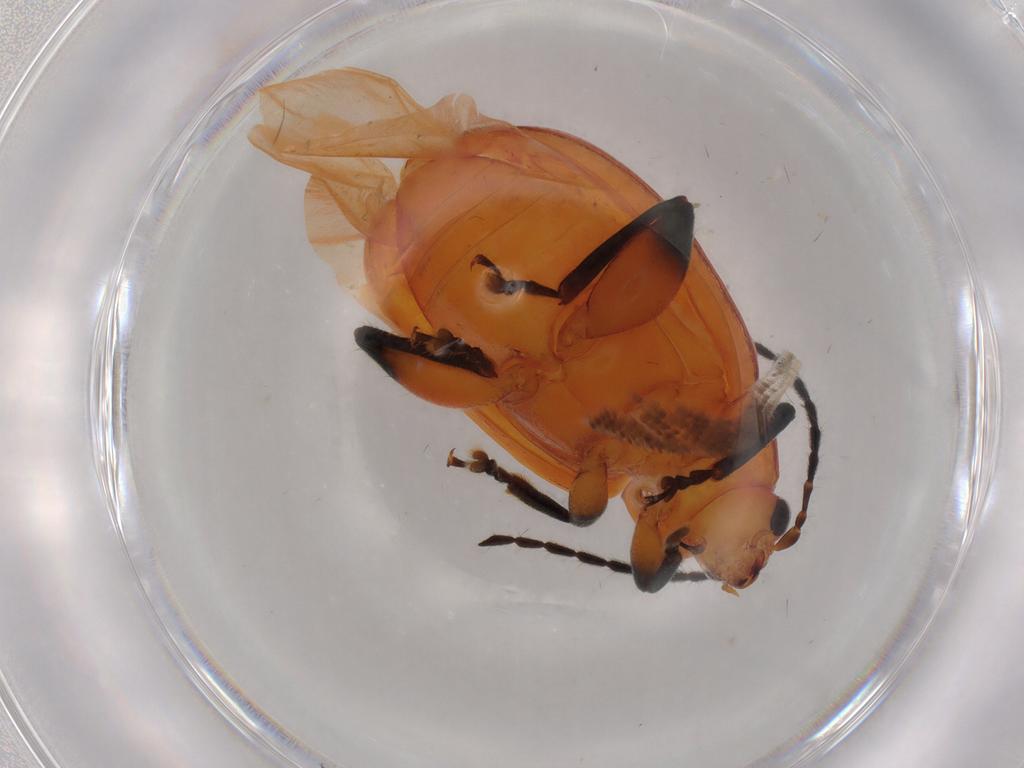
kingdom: Animalia
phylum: Arthropoda
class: Insecta
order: Coleoptera
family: Chrysomelidae
